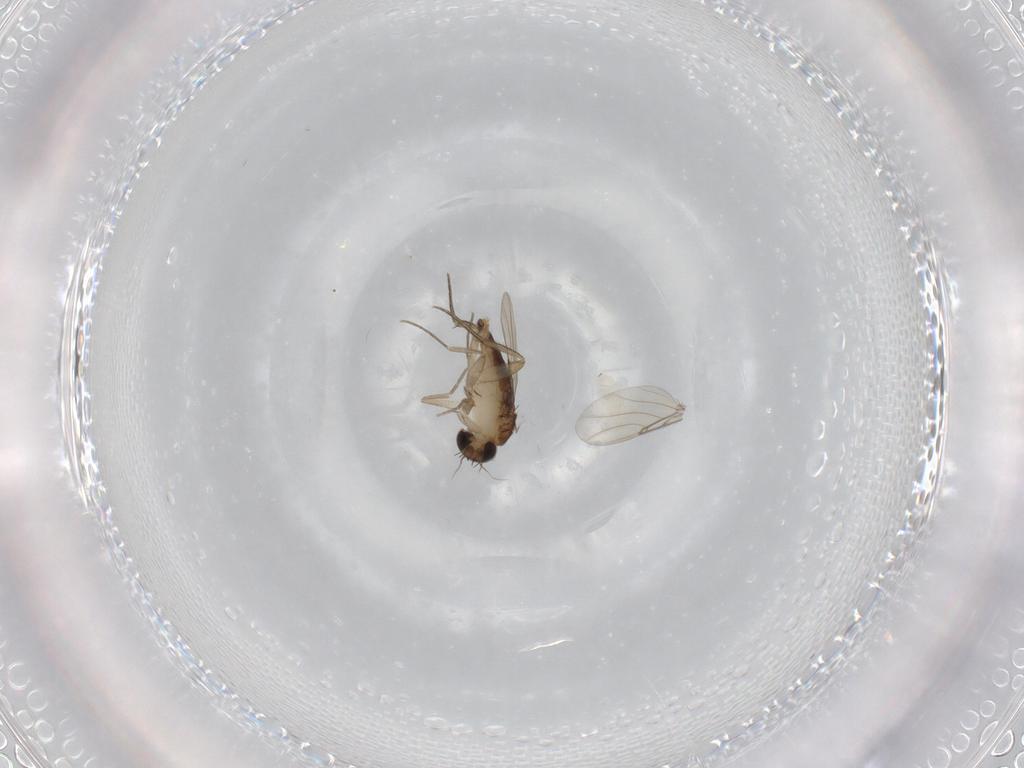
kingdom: Animalia
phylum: Arthropoda
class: Insecta
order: Diptera
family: Phoridae
